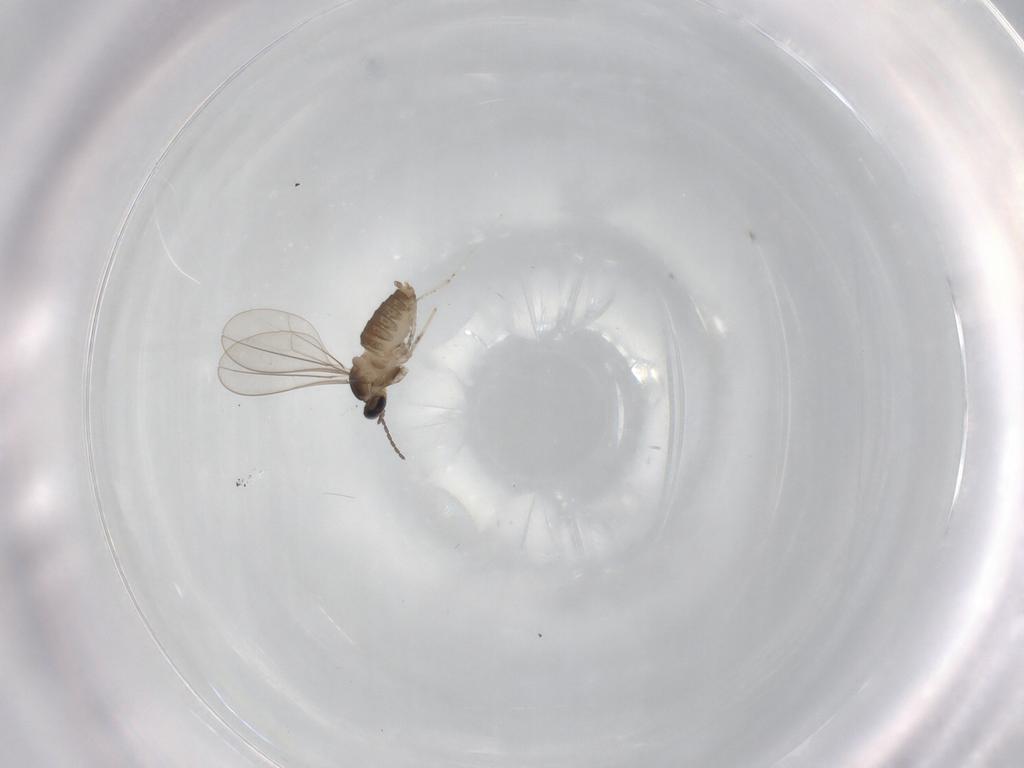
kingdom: Animalia
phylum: Arthropoda
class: Insecta
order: Diptera
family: Cecidomyiidae
